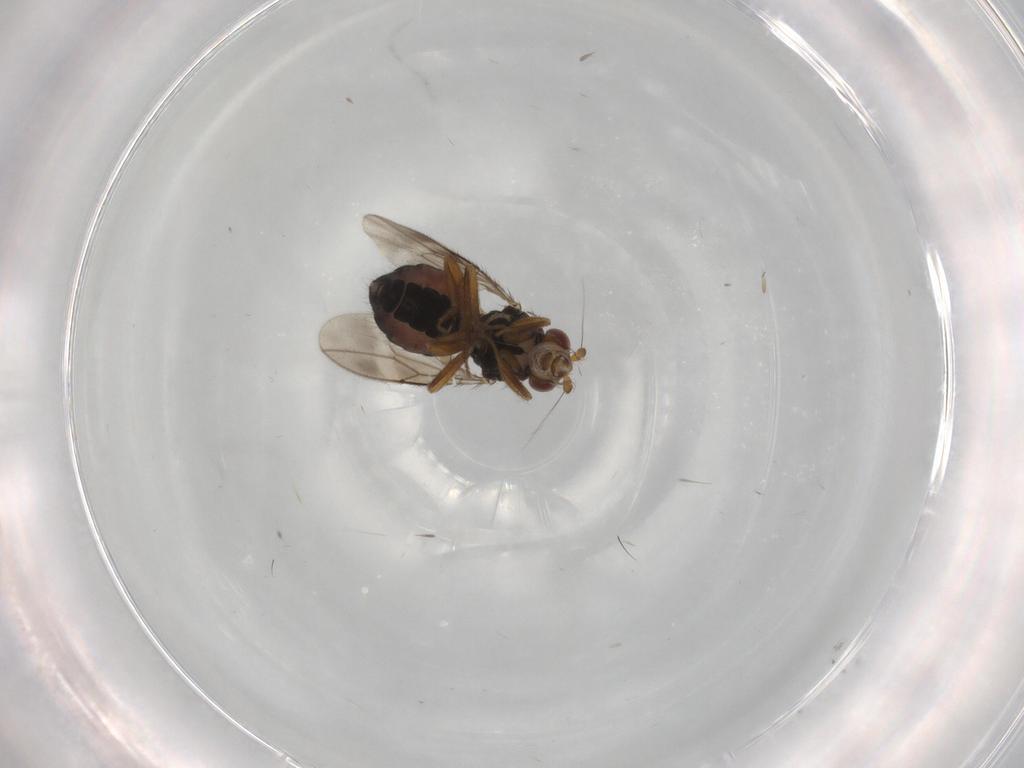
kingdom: Animalia
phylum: Arthropoda
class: Insecta
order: Diptera
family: Sphaeroceridae
